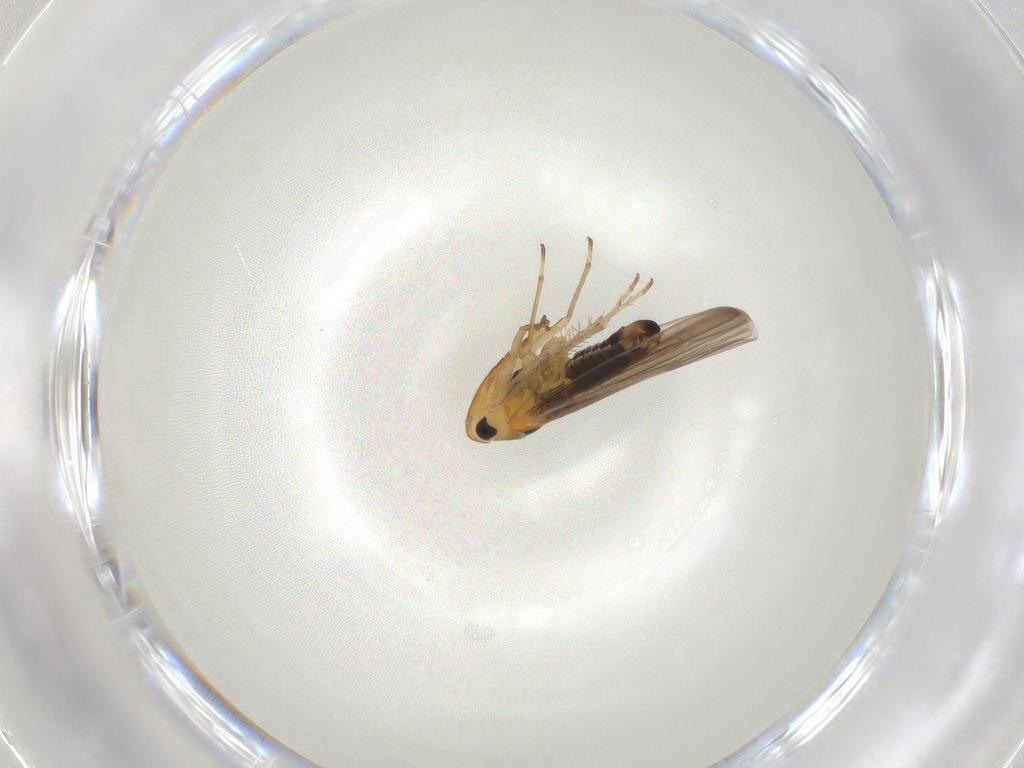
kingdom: Animalia
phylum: Arthropoda
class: Insecta
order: Hemiptera
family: Cicadellidae
